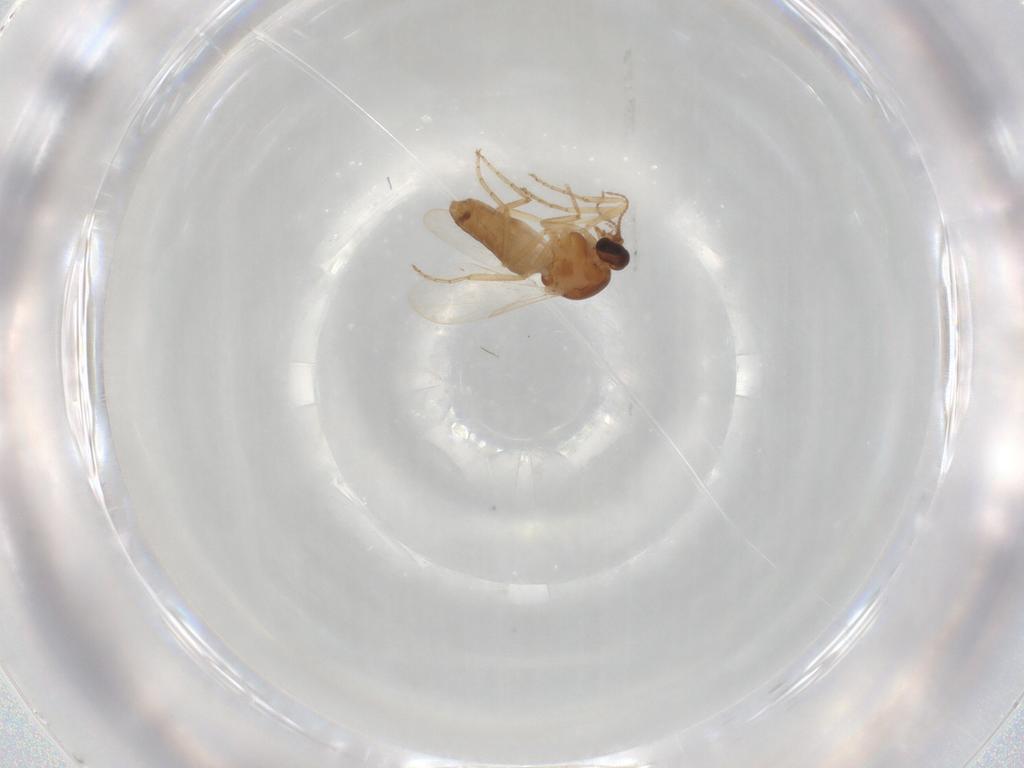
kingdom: Animalia
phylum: Arthropoda
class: Insecta
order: Diptera
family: Ceratopogonidae
